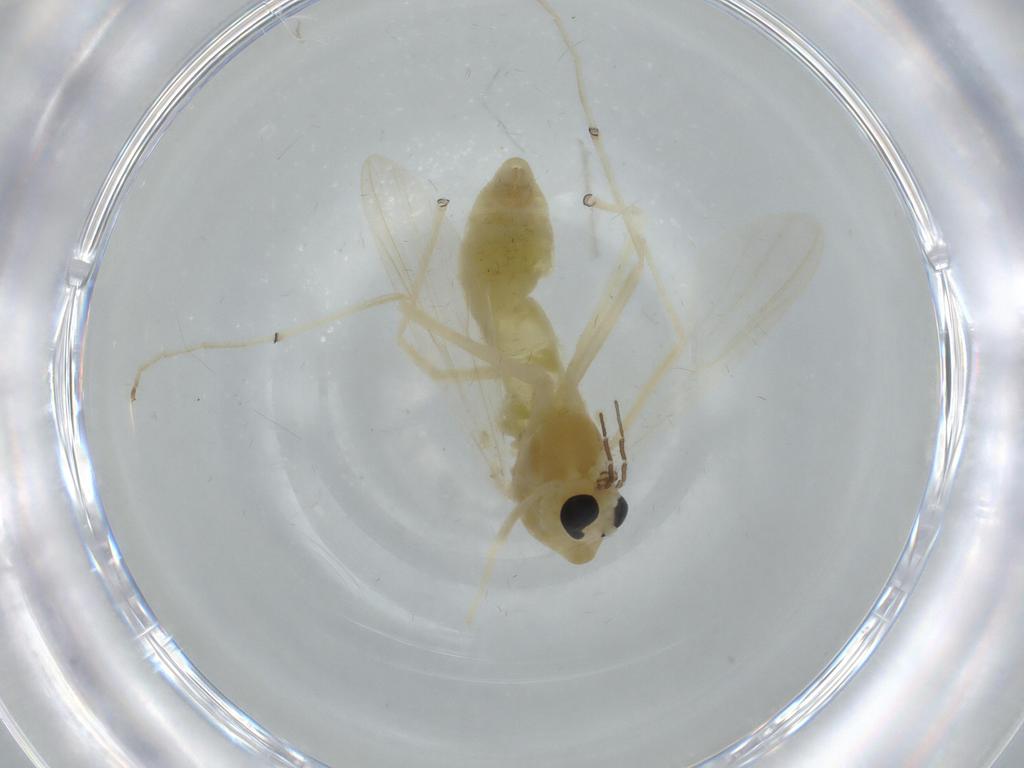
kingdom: Animalia
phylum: Arthropoda
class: Insecta
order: Diptera
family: Chironomidae
